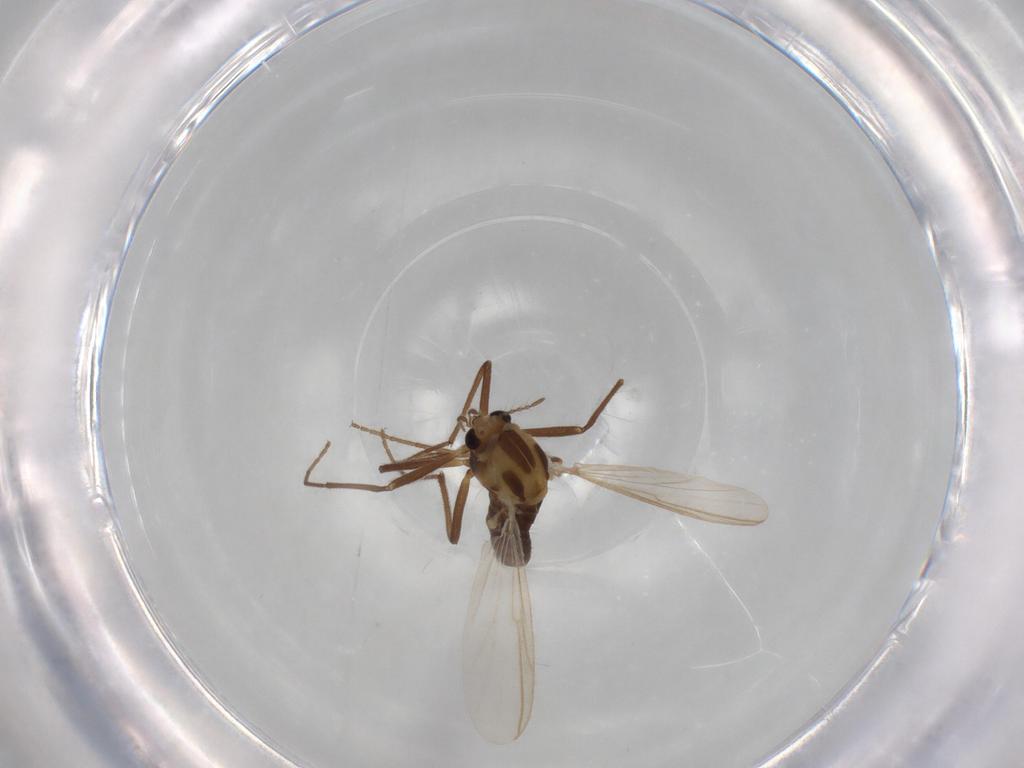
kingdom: Animalia
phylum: Arthropoda
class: Insecta
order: Diptera
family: Chironomidae
